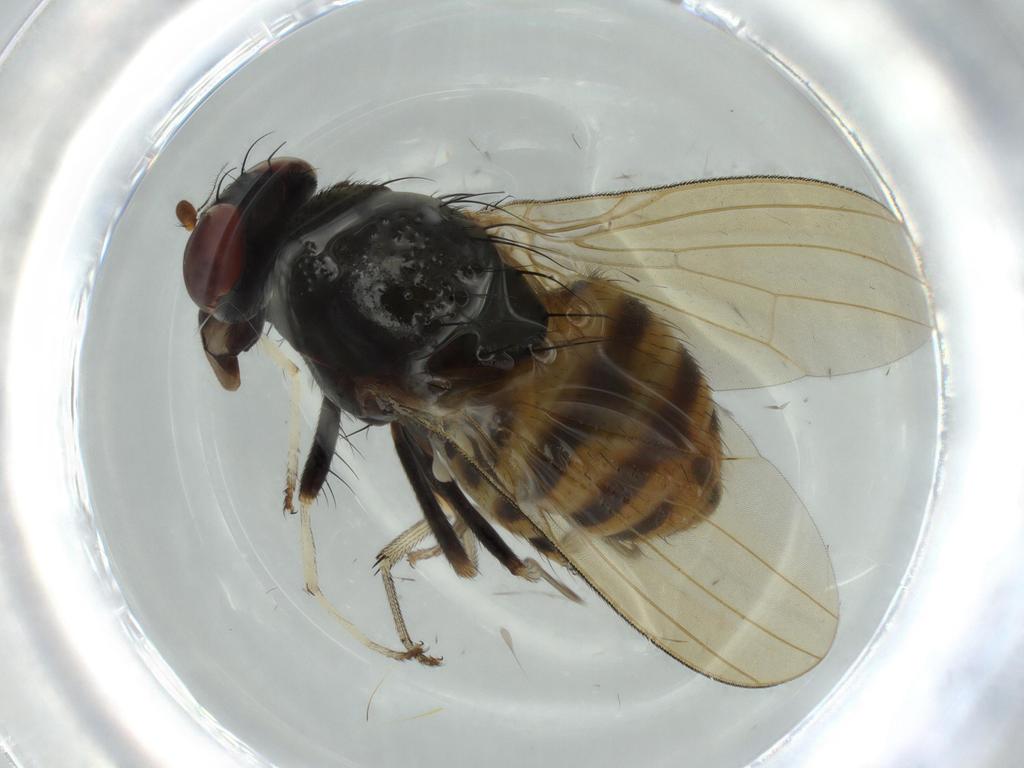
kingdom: Animalia
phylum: Arthropoda
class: Insecta
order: Diptera
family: Ceratopogonidae
